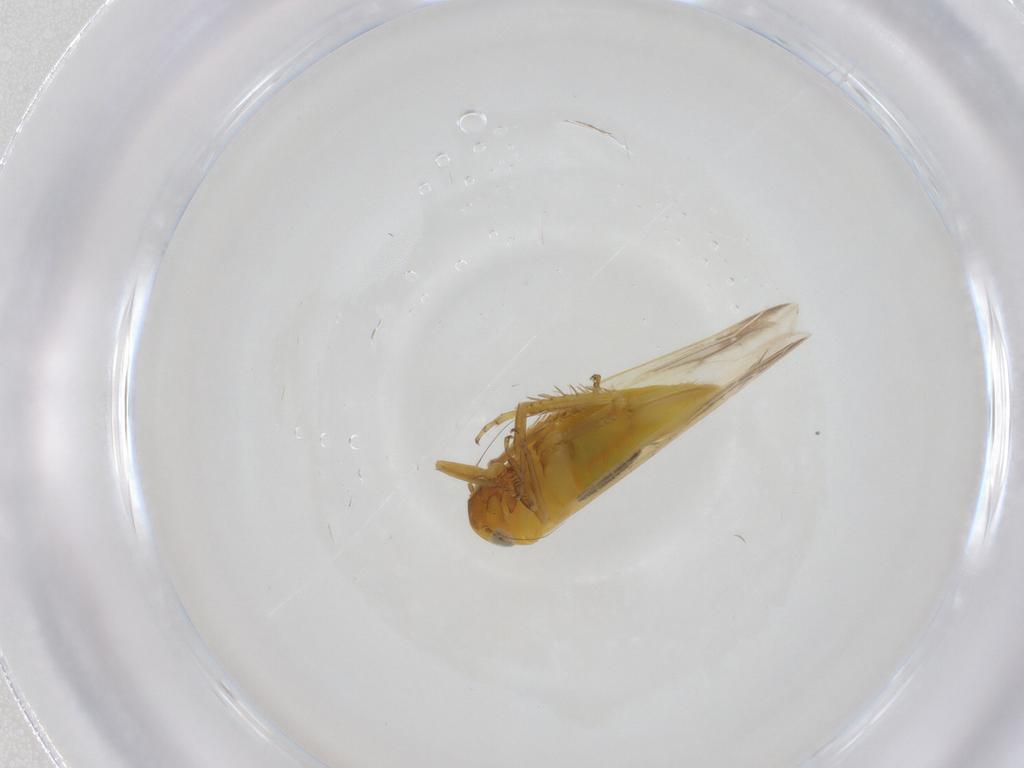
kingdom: Animalia
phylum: Arthropoda
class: Insecta
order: Hemiptera
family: Cicadellidae
